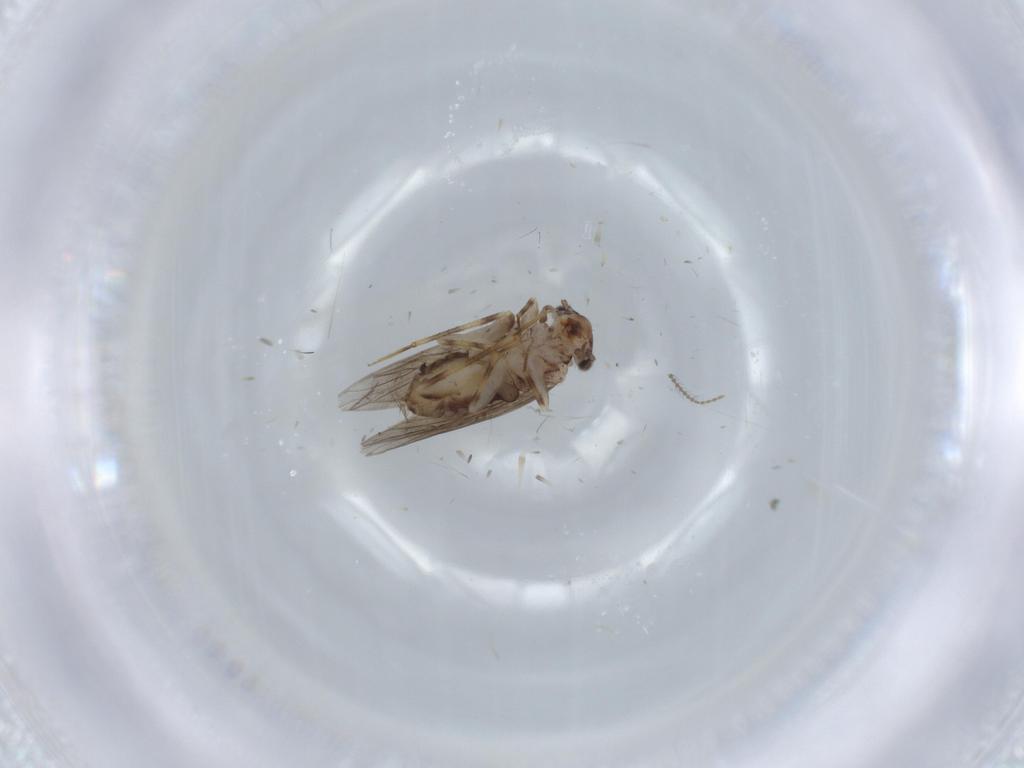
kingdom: Animalia
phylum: Arthropoda
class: Insecta
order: Psocodea
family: Lepidopsocidae
